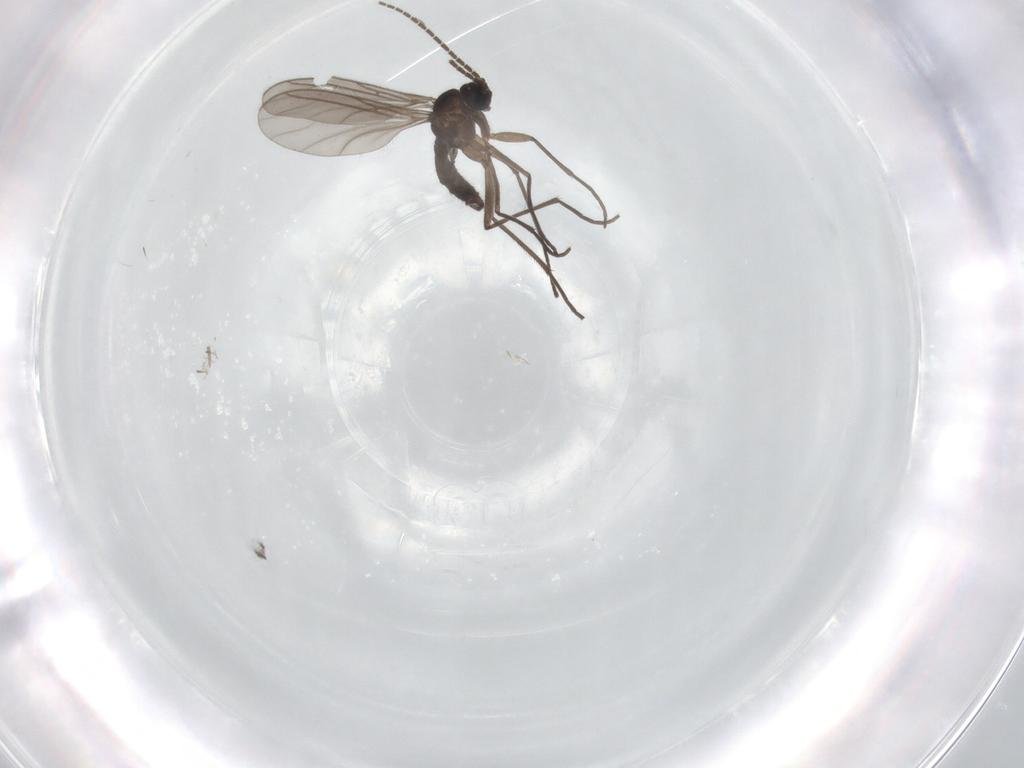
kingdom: Animalia
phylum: Arthropoda
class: Insecta
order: Diptera
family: Sciaridae
